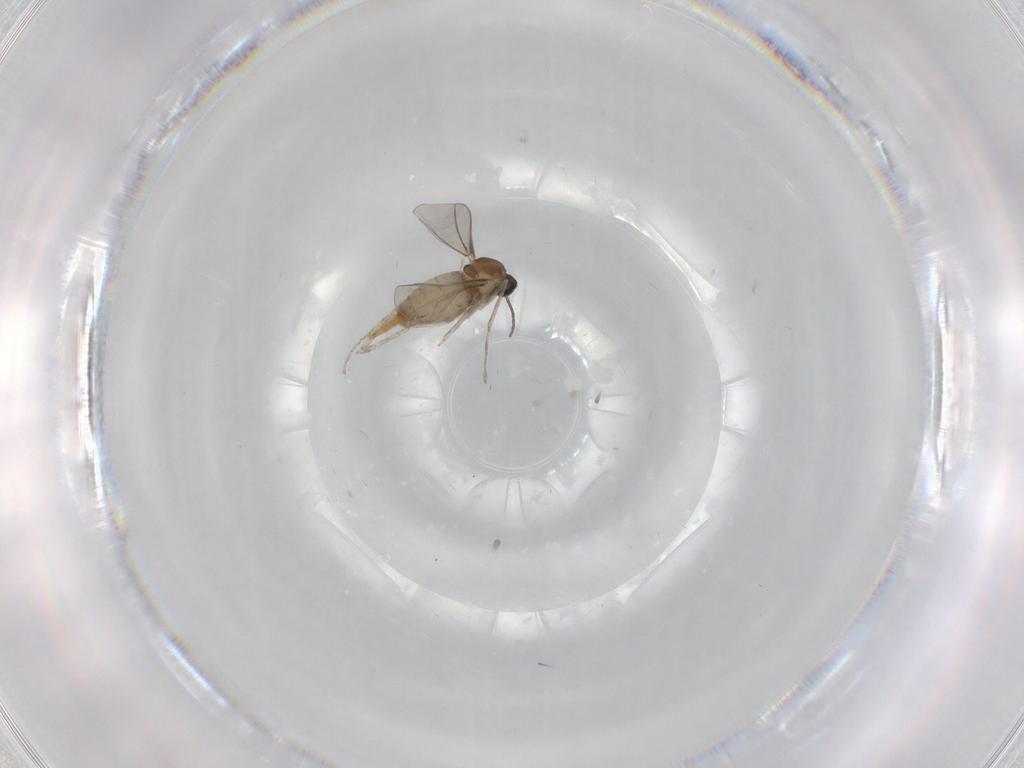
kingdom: Animalia
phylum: Arthropoda
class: Insecta
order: Diptera
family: Cecidomyiidae
